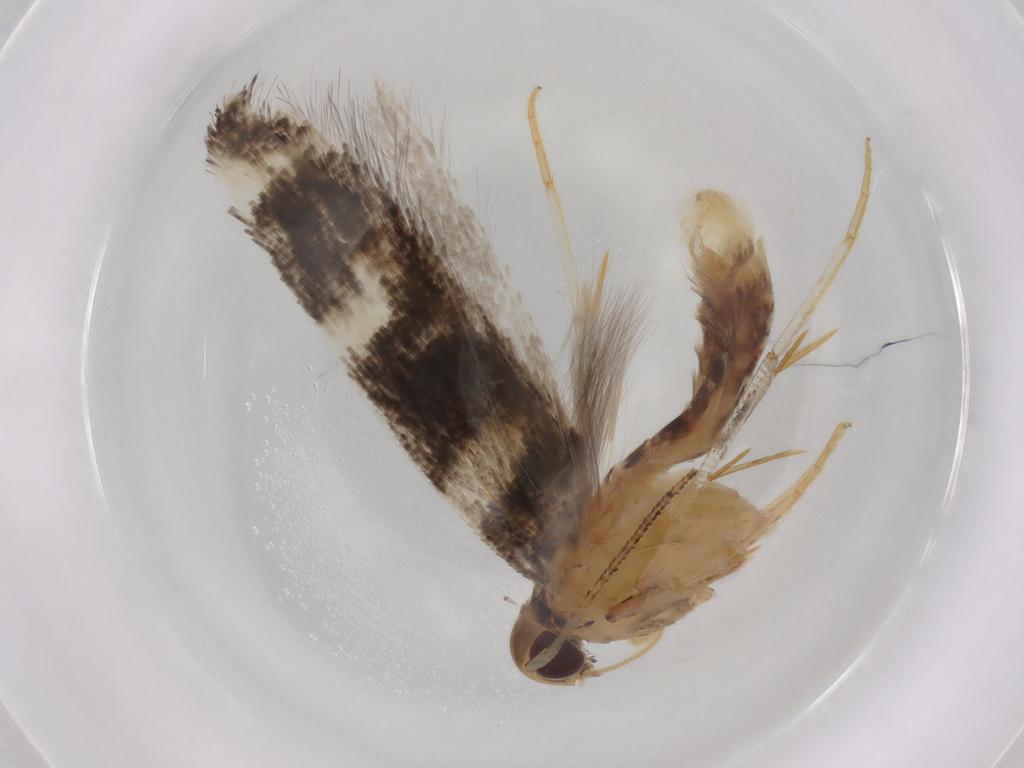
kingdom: Animalia
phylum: Arthropoda
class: Insecta
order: Lepidoptera
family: Cosmopterigidae
